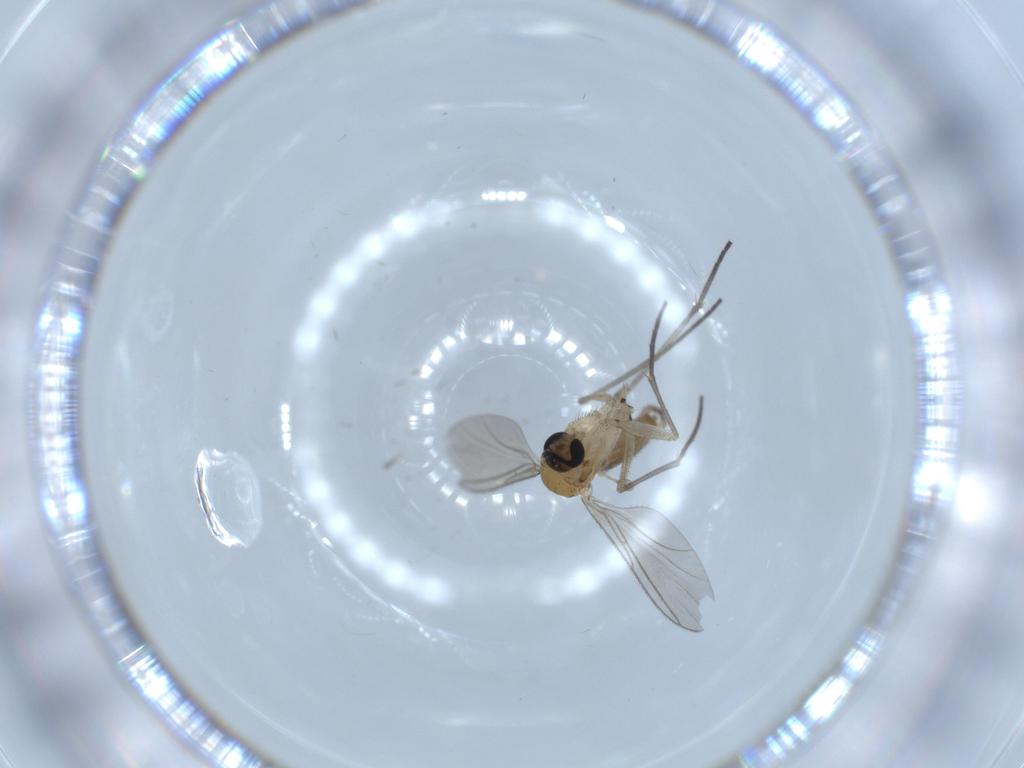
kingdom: Animalia
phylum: Arthropoda
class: Insecta
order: Diptera
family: Sciaridae
